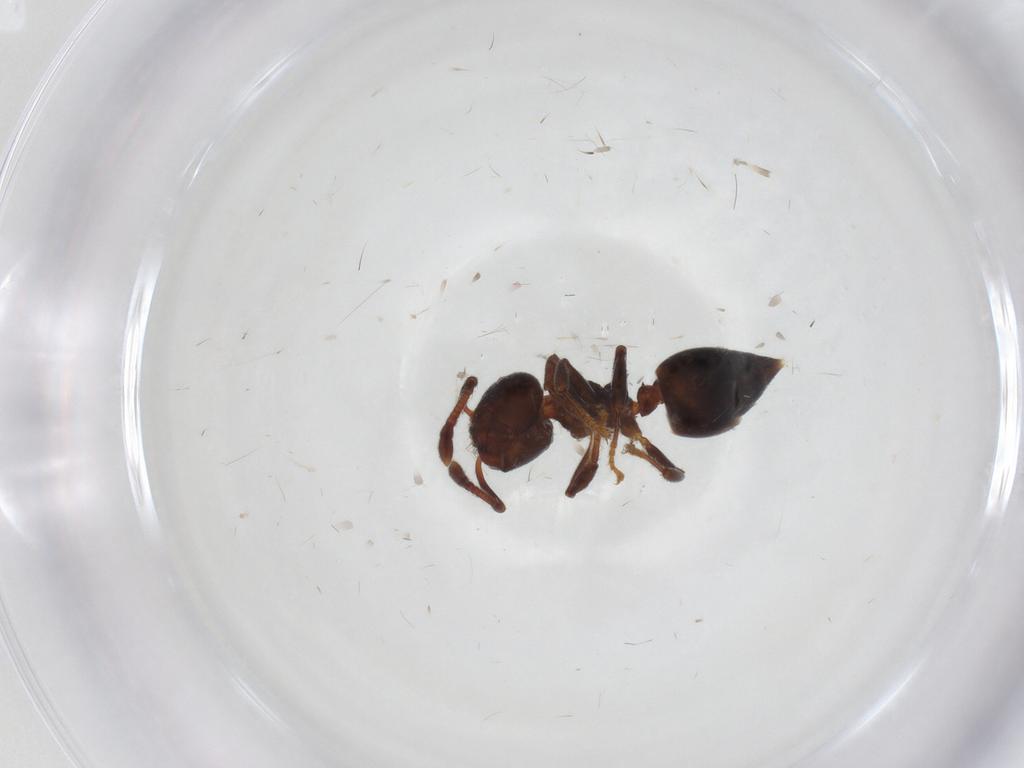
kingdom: Animalia
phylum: Arthropoda
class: Insecta
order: Hymenoptera
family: Formicidae
